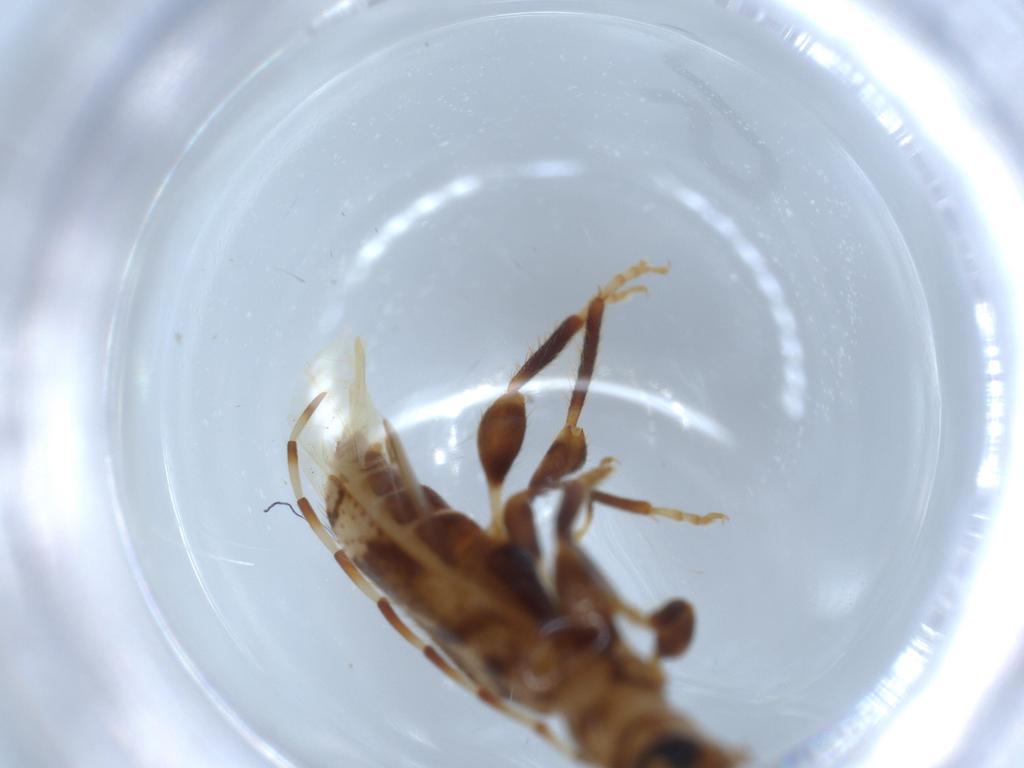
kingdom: Animalia
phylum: Arthropoda
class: Insecta
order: Coleoptera
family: Cerambycidae
